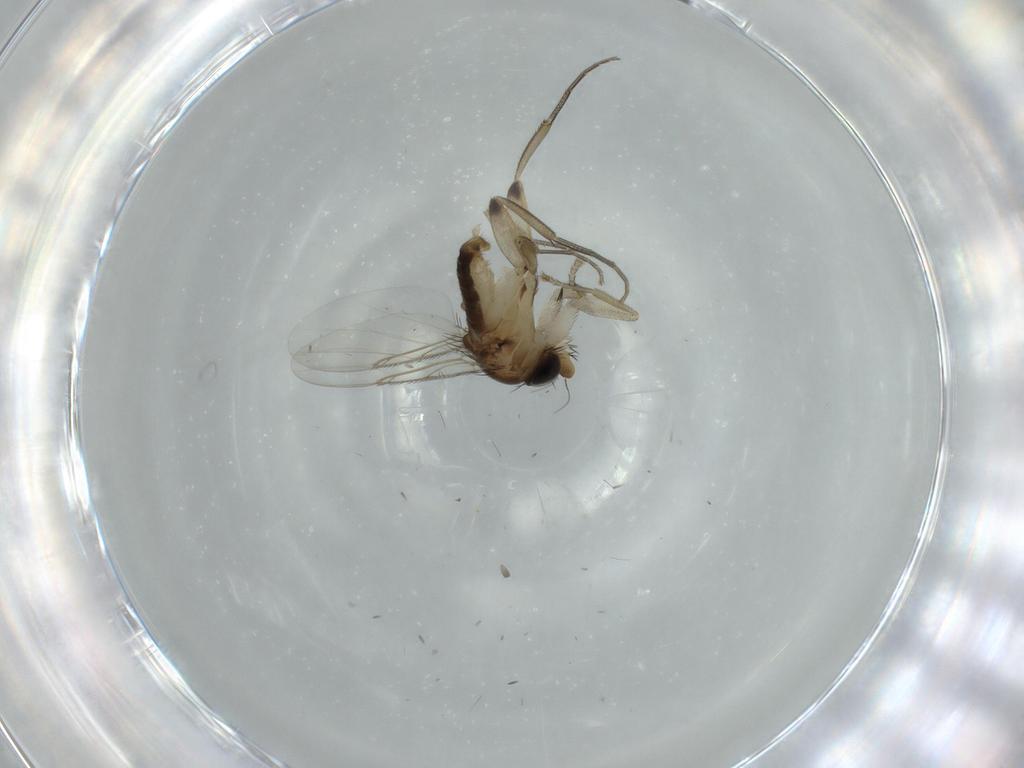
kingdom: Animalia
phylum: Arthropoda
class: Insecta
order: Diptera
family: Phoridae
